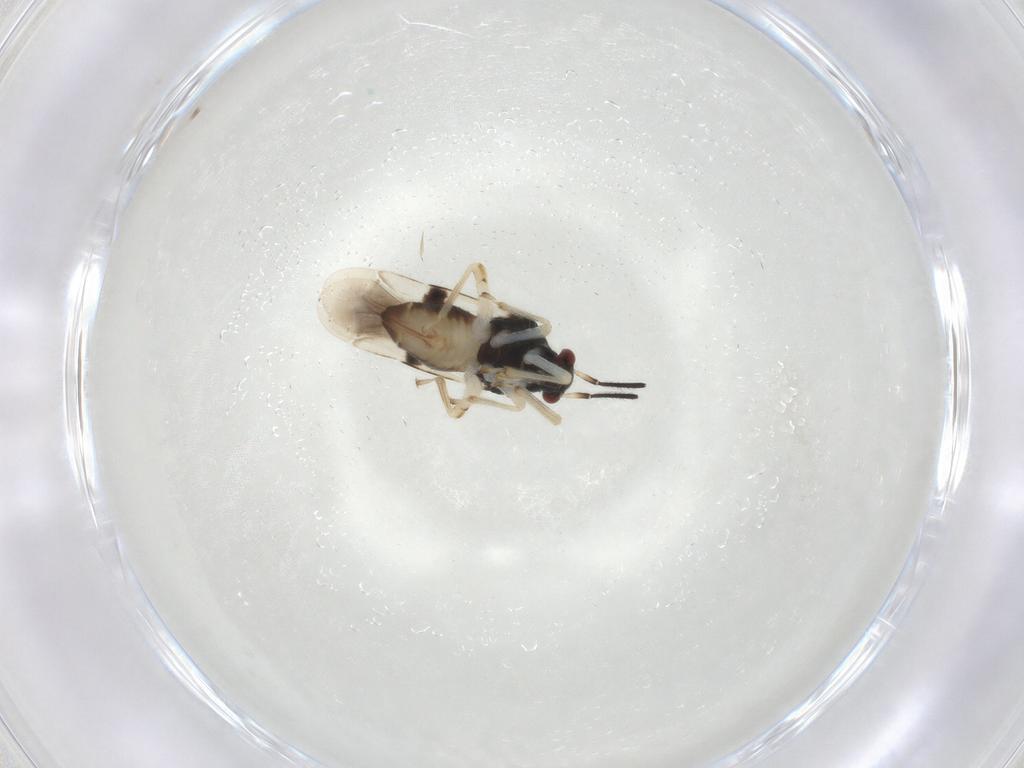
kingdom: Animalia
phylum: Arthropoda
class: Insecta
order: Hemiptera
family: Miridae
